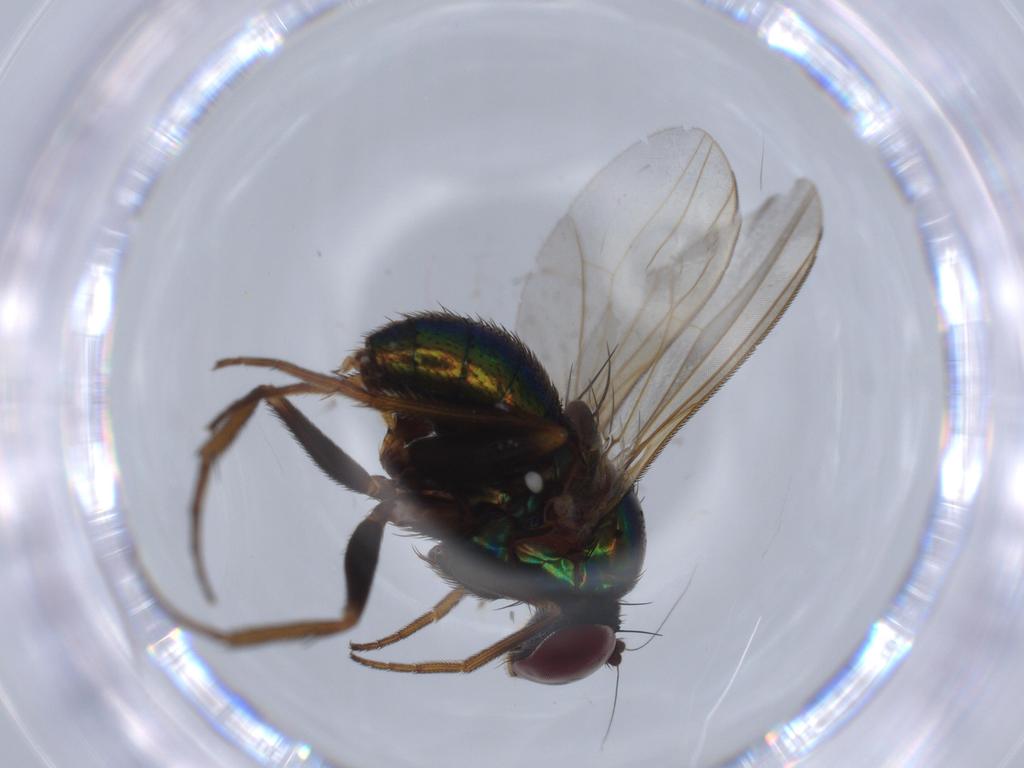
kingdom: Animalia
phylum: Arthropoda
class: Insecta
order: Diptera
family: Dolichopodidae
